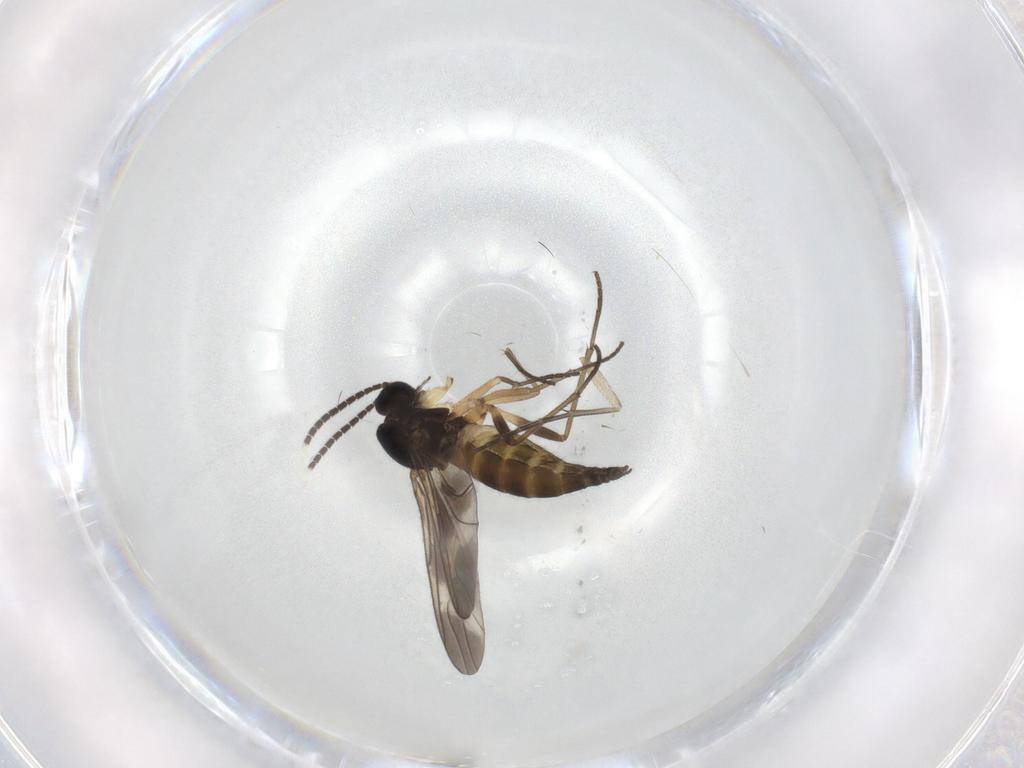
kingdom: Animalia
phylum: Arthropoda
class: Insecta
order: Diptera
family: Sciaridae
